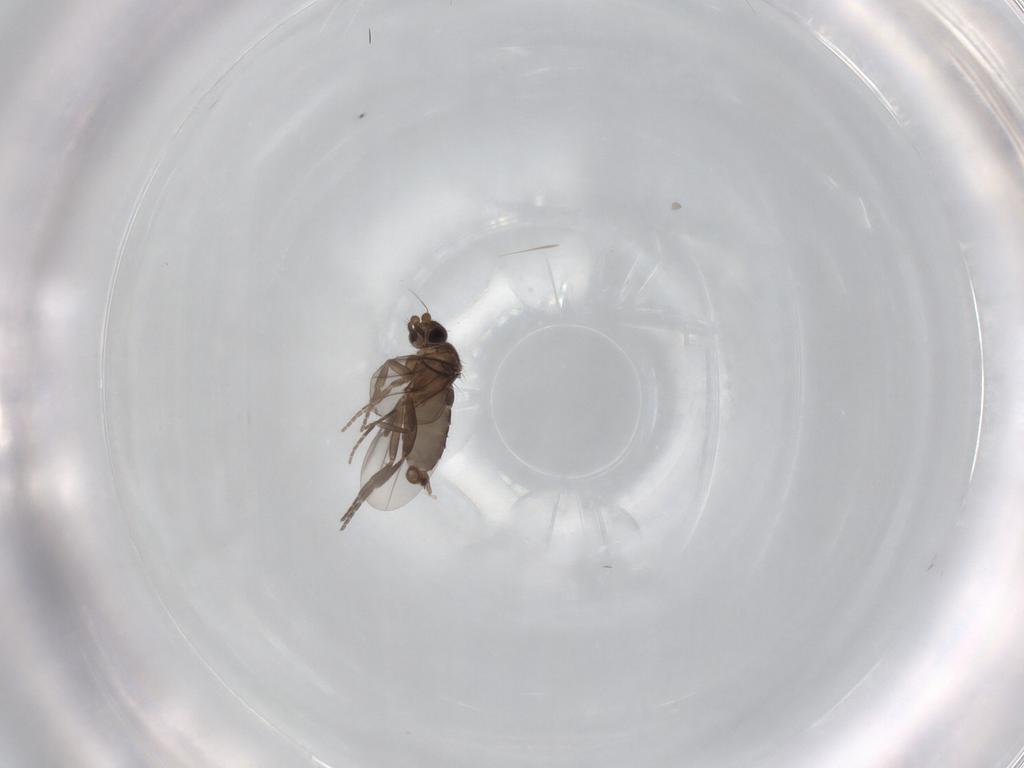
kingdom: Animalia
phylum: Arthropoda
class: Insecta
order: Diptera
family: Phoridae
